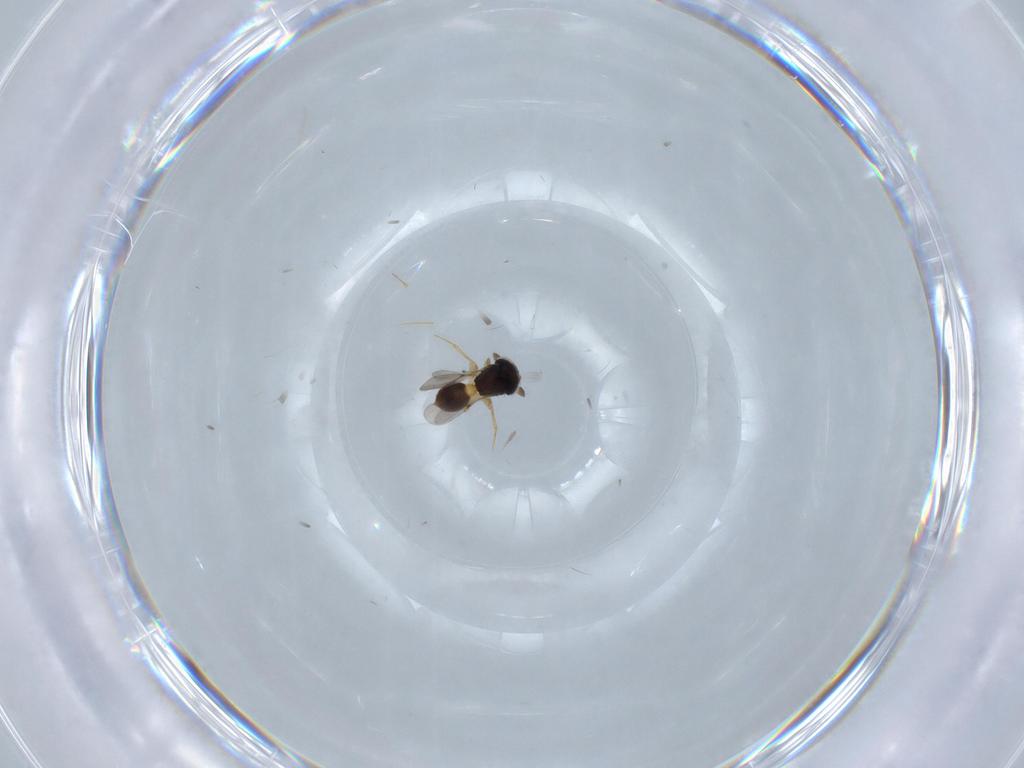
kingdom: Animalia
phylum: Arthropoda
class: Insecta
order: Hymenoptera
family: Scelionidae
